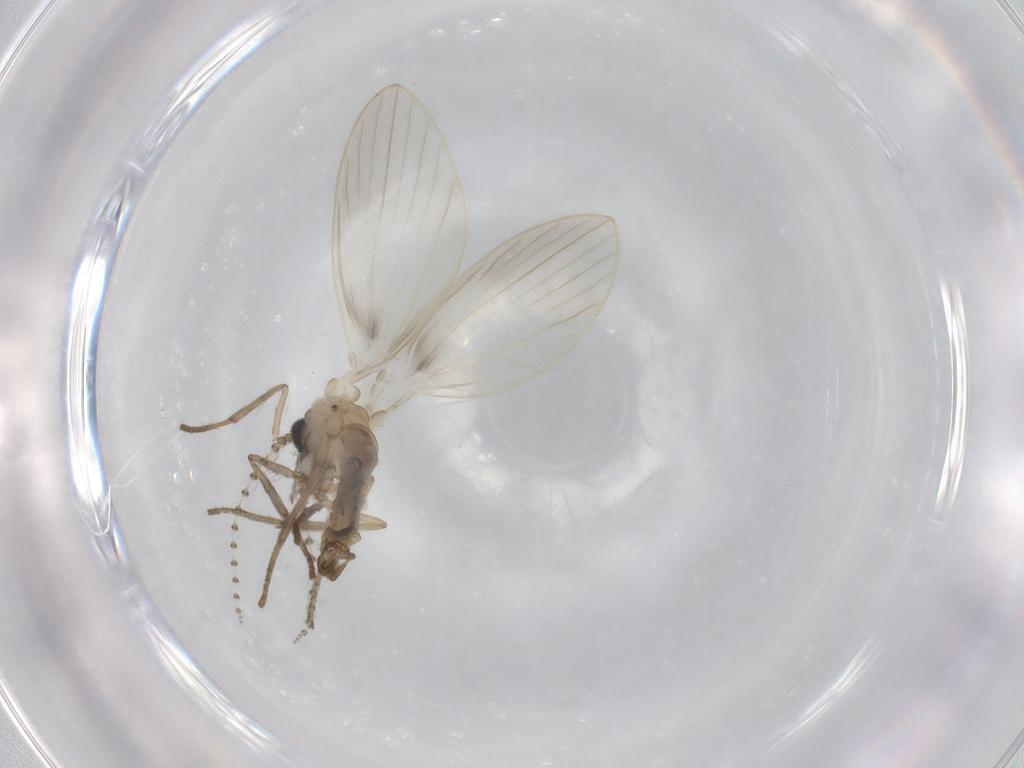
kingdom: Animalia
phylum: Arthropoda
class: Insecta
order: Diptera
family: Psychodidae
